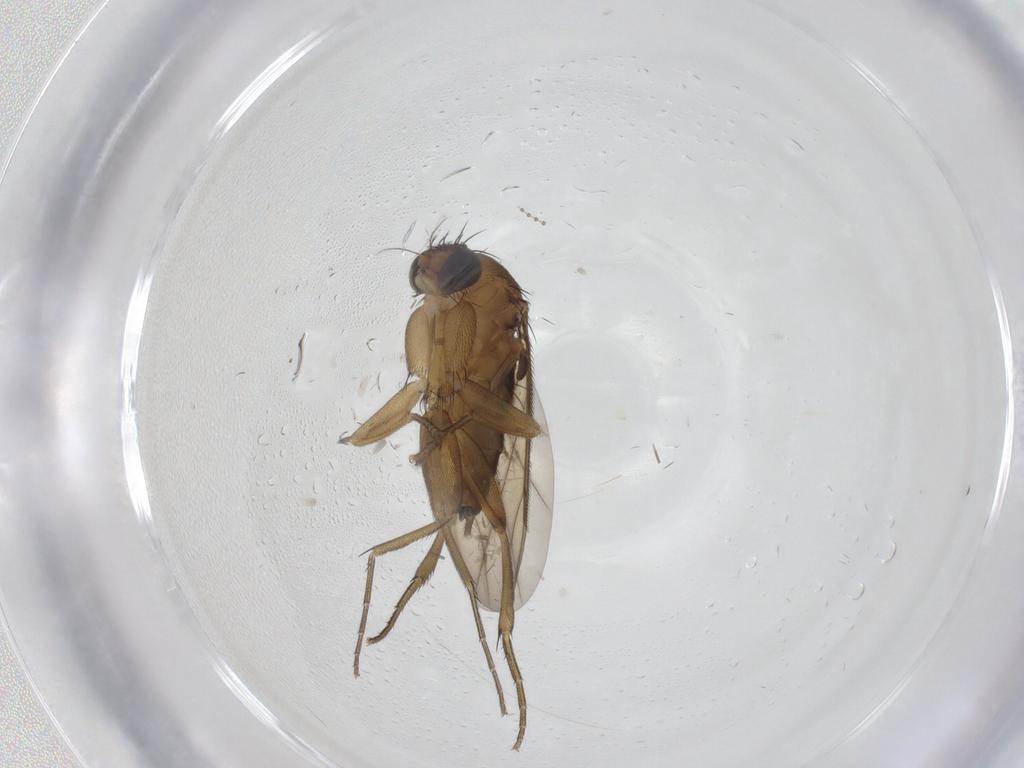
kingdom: Animalia
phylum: Arthropoda
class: Insecta
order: Diptera
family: Phoridae
